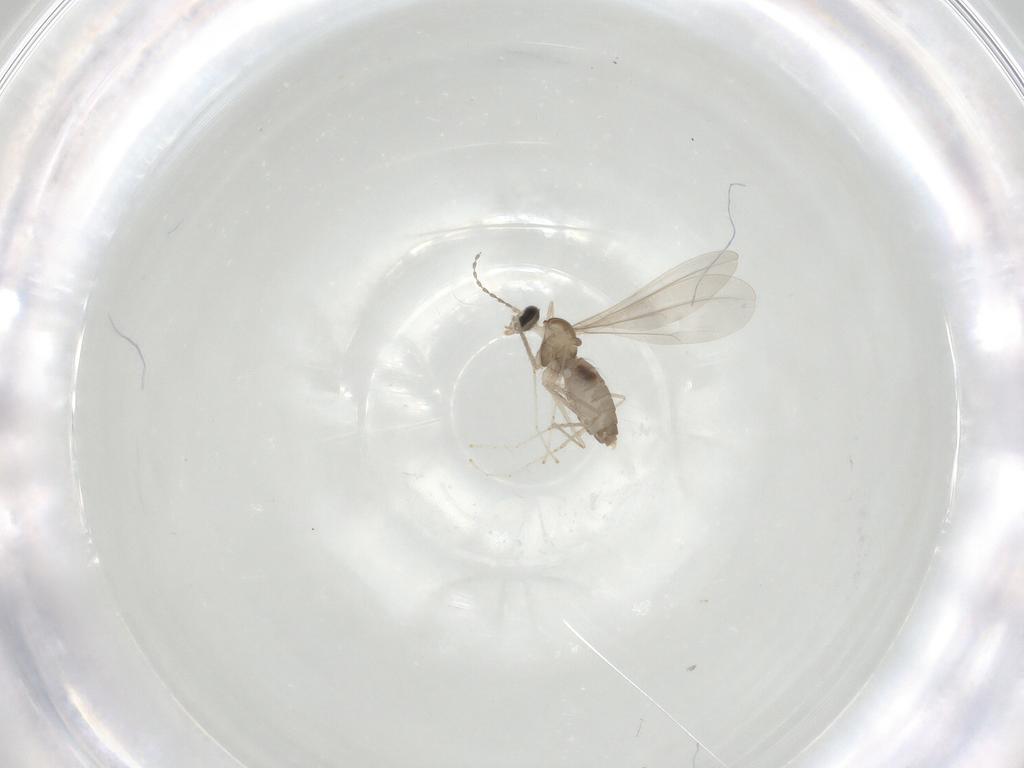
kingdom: Animalia
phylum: Arthropoda
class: Insecta
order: Diptera
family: Cecidomyiidae
